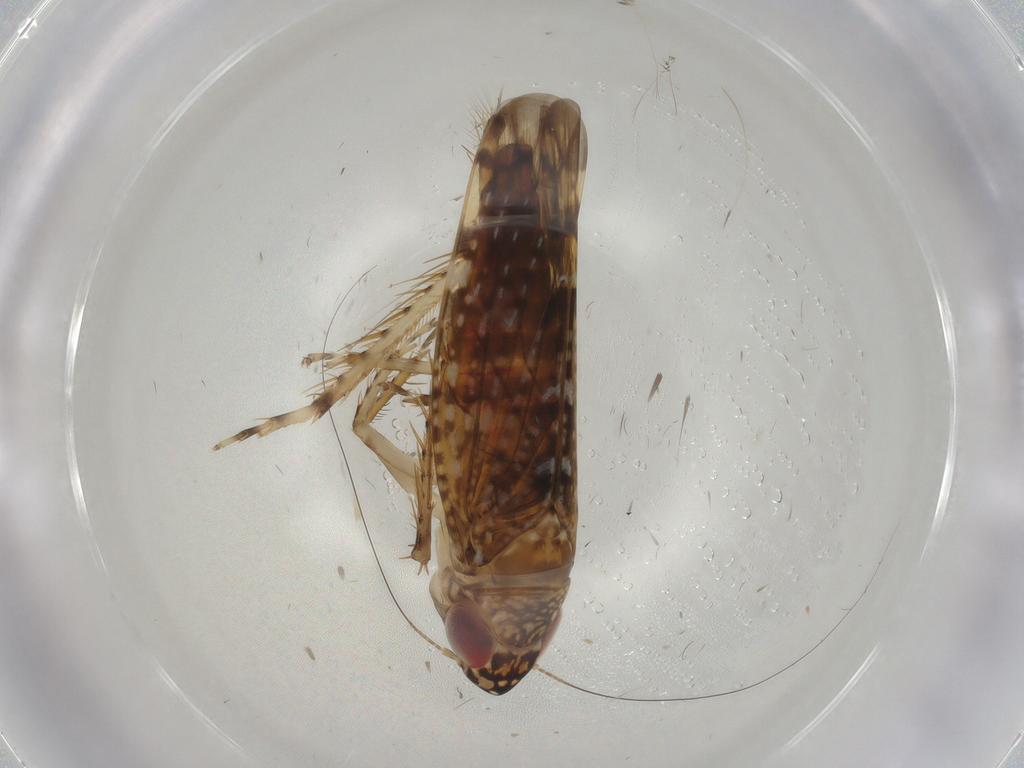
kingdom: Animalia
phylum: Arthropoda
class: Insecta
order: Hemiptera
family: Cicadellidae
